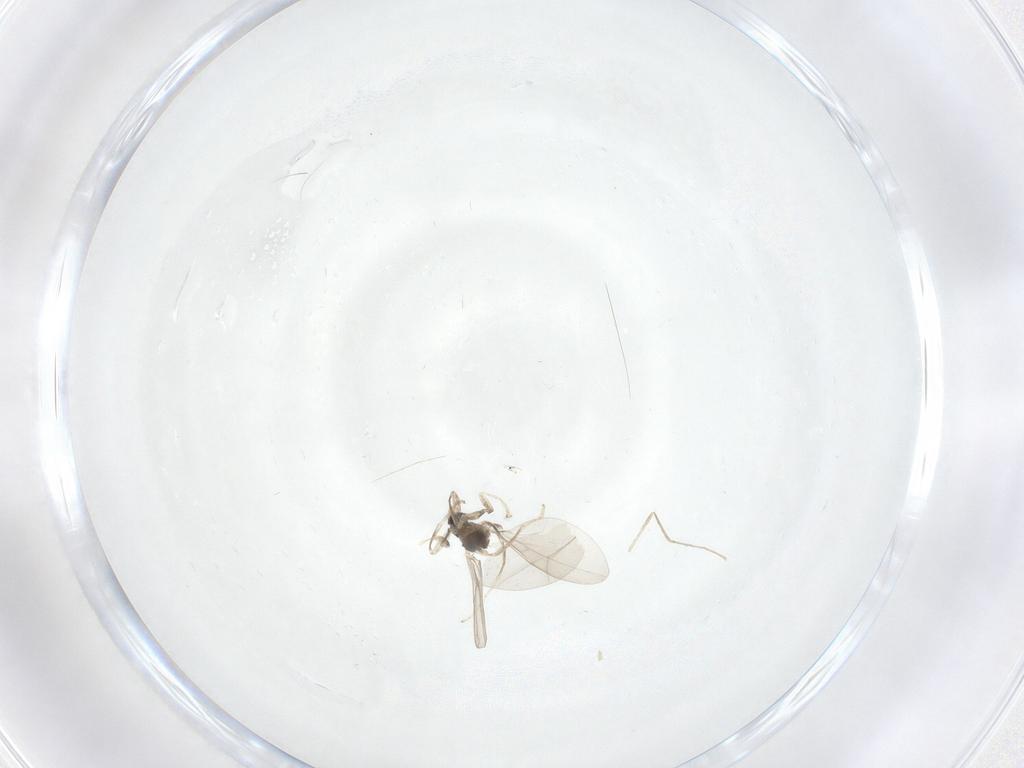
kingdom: Animalia
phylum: Arthropoda
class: Insecta
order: Diptera
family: Cecidomyiidae
